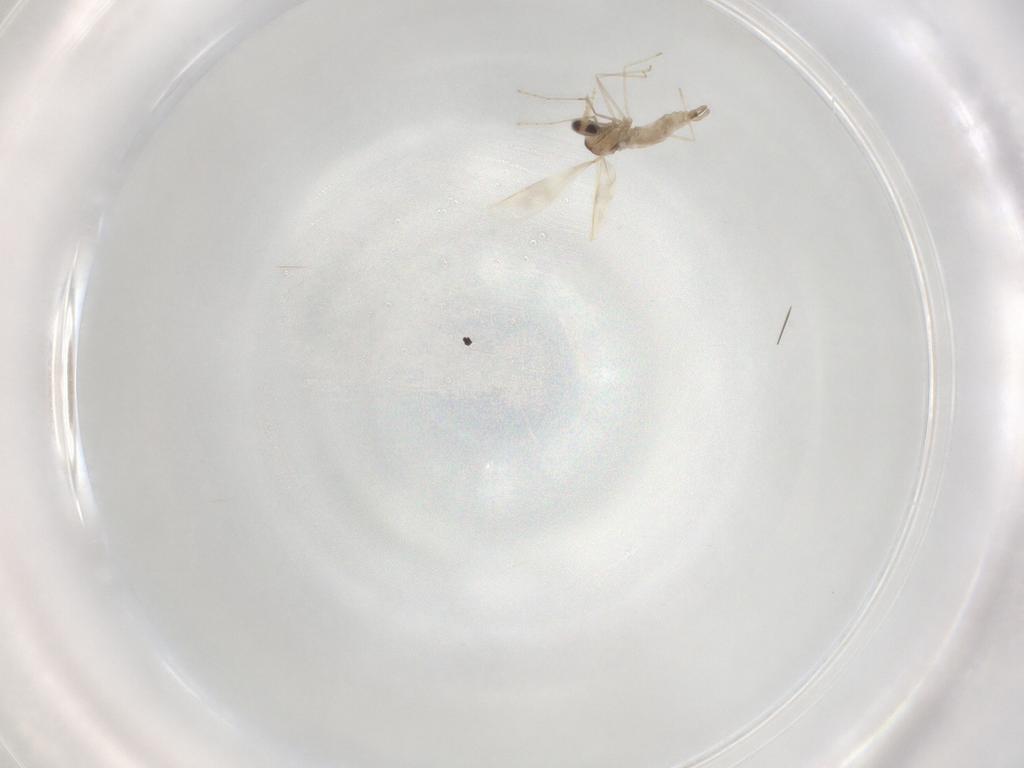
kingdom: Animalia
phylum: Arthropoda
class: Insecta
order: Diptera
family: Cecidomyiidae
